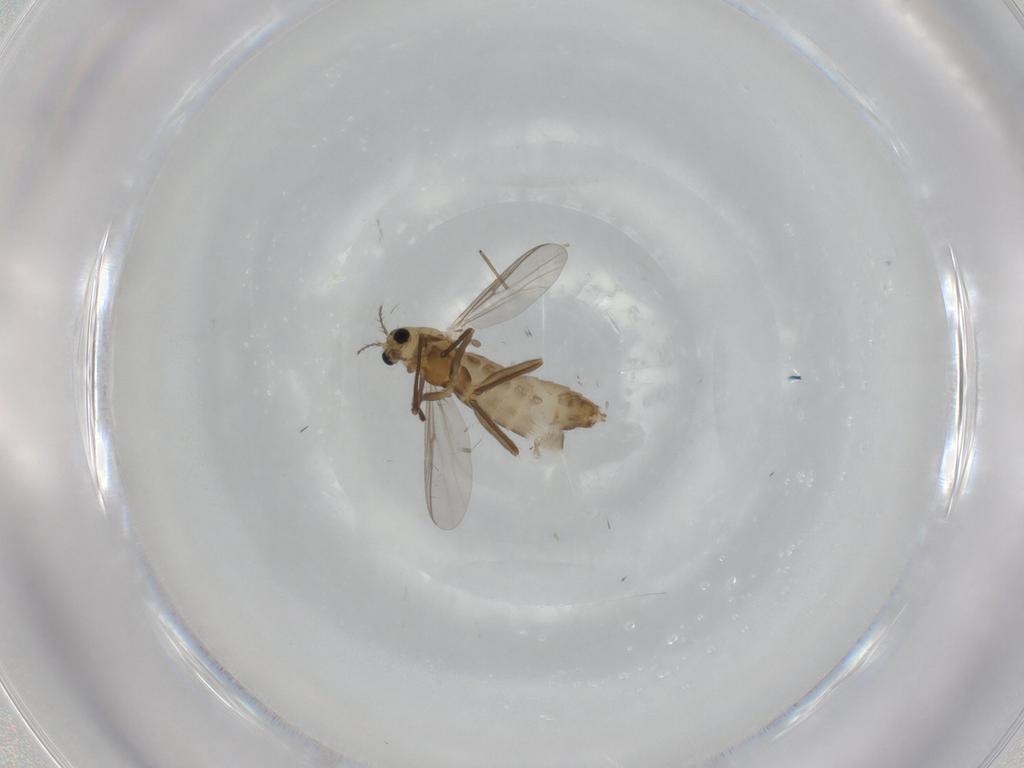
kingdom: Animalia
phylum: Arthropoda
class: Insecta
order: Diptera
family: Chironomidae
